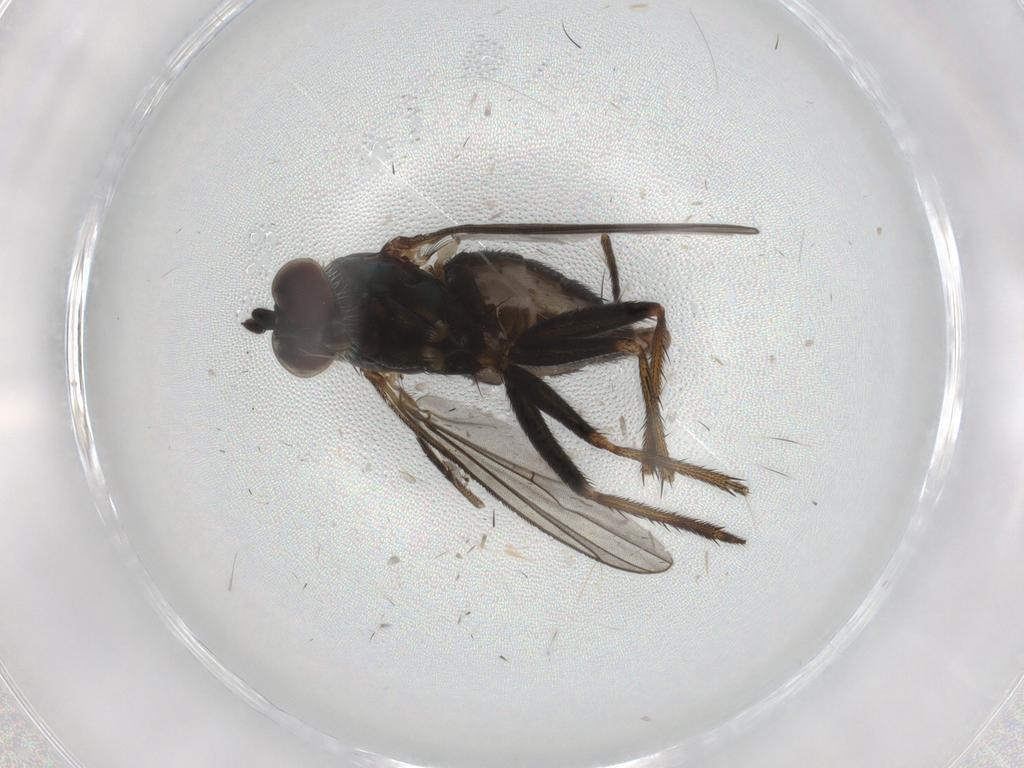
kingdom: Animalia
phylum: Arthropoda
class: Insecta
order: Diptera
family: Dolichopodidae
